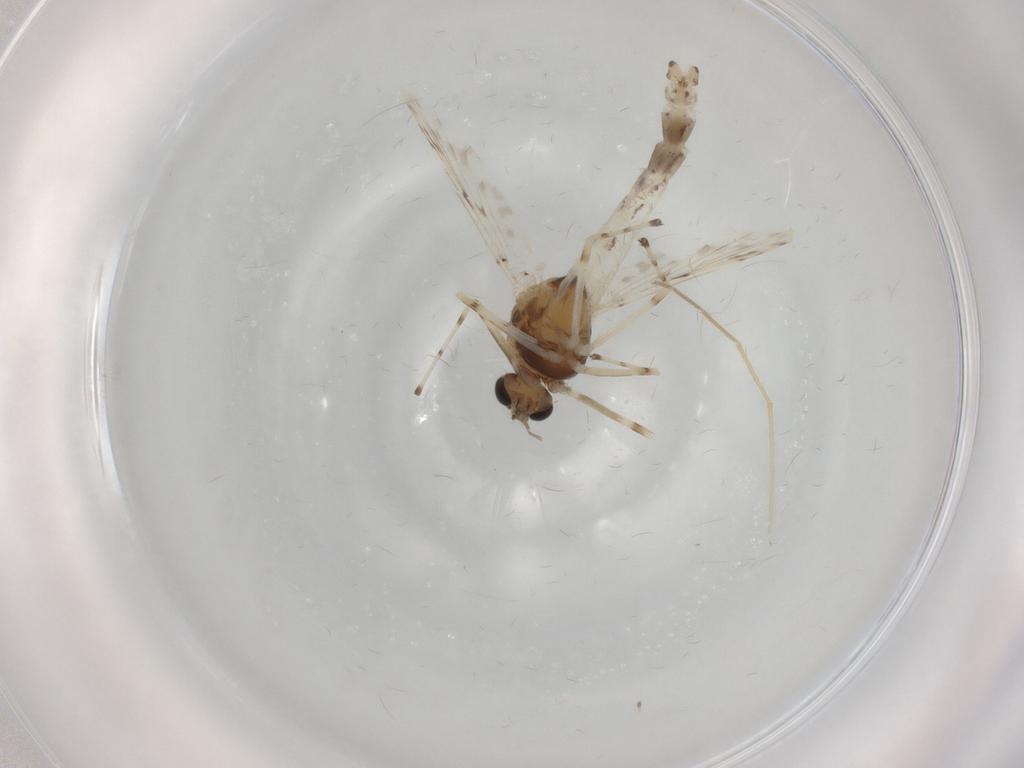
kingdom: Animalia
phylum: Arthropoda
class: Insecta
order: Diptera
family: Chironomidae
